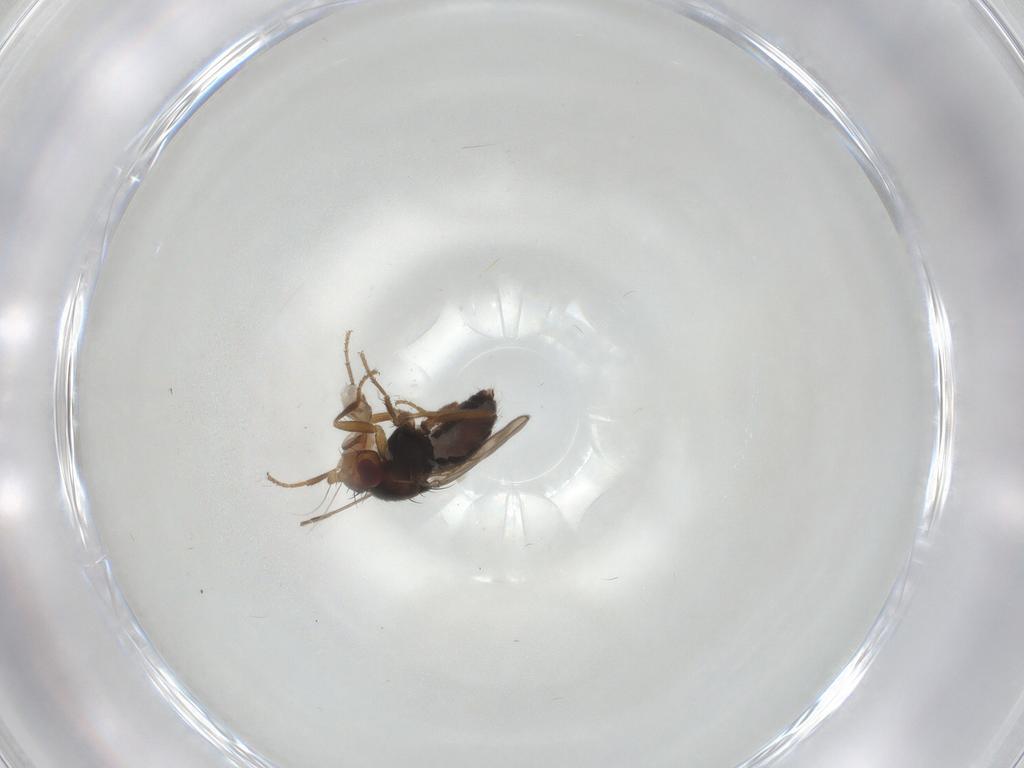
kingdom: Animalia
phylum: Arthropoda
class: Insecta
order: Diptera
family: Sphaeroceridae
